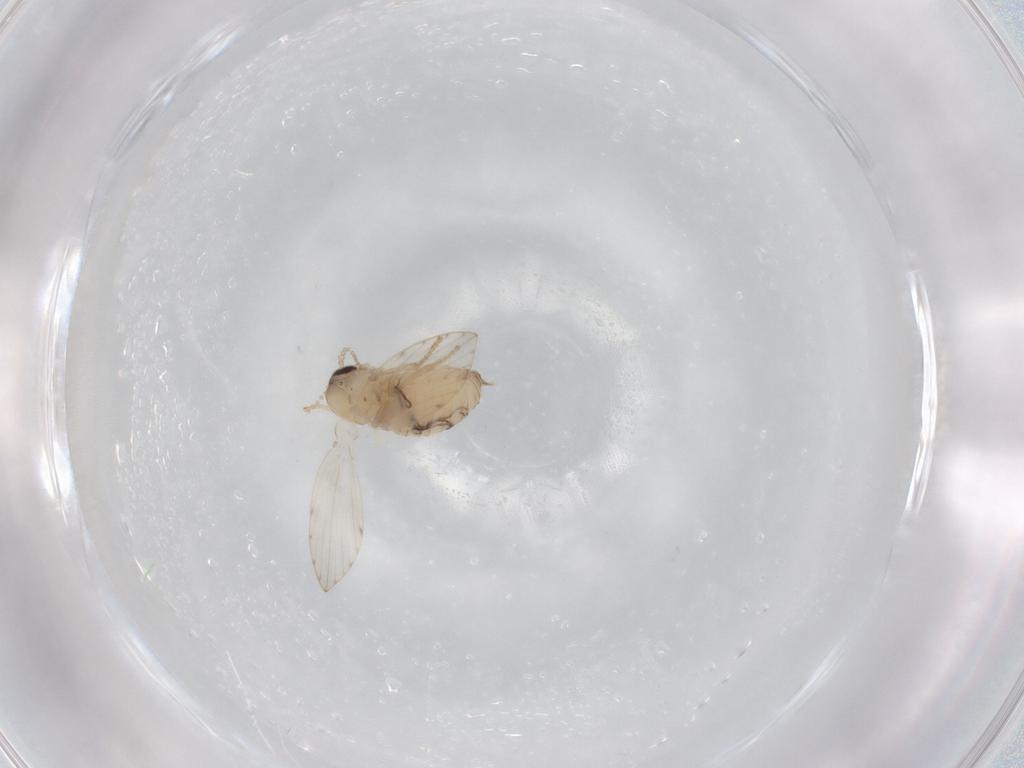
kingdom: Animalia
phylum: Arthropoda
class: Insecta
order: Diptera
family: Psychodidae
